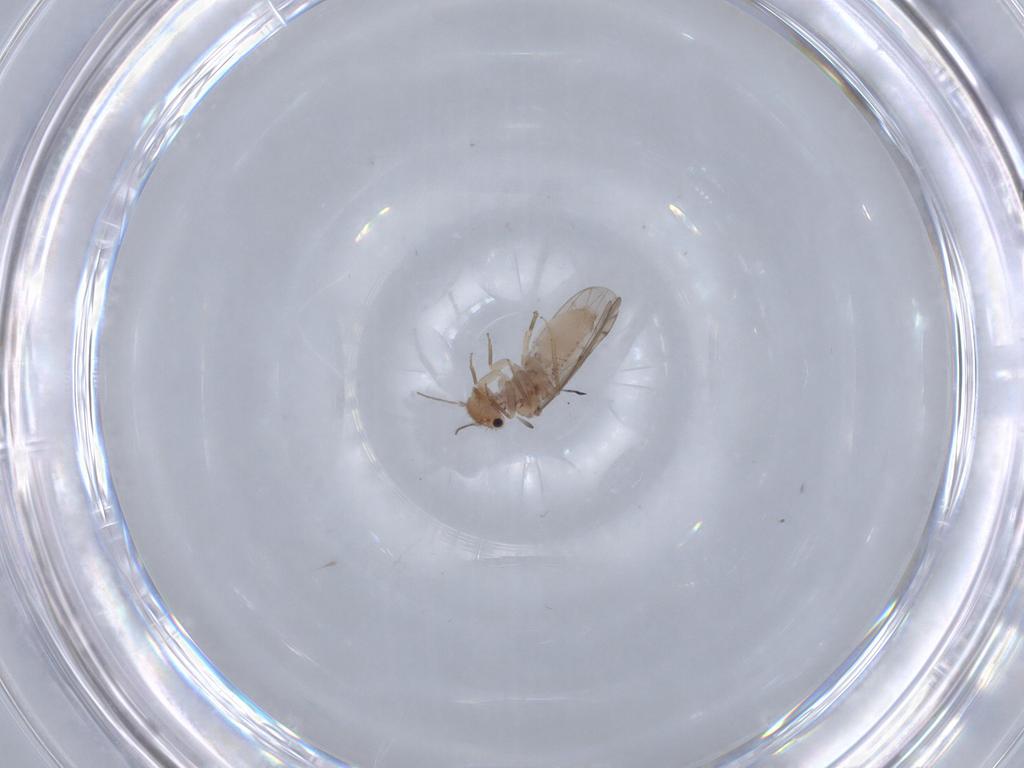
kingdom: Animalia
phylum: Arthropoda
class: Insecta
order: Psocodea
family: Ectopsocidae
